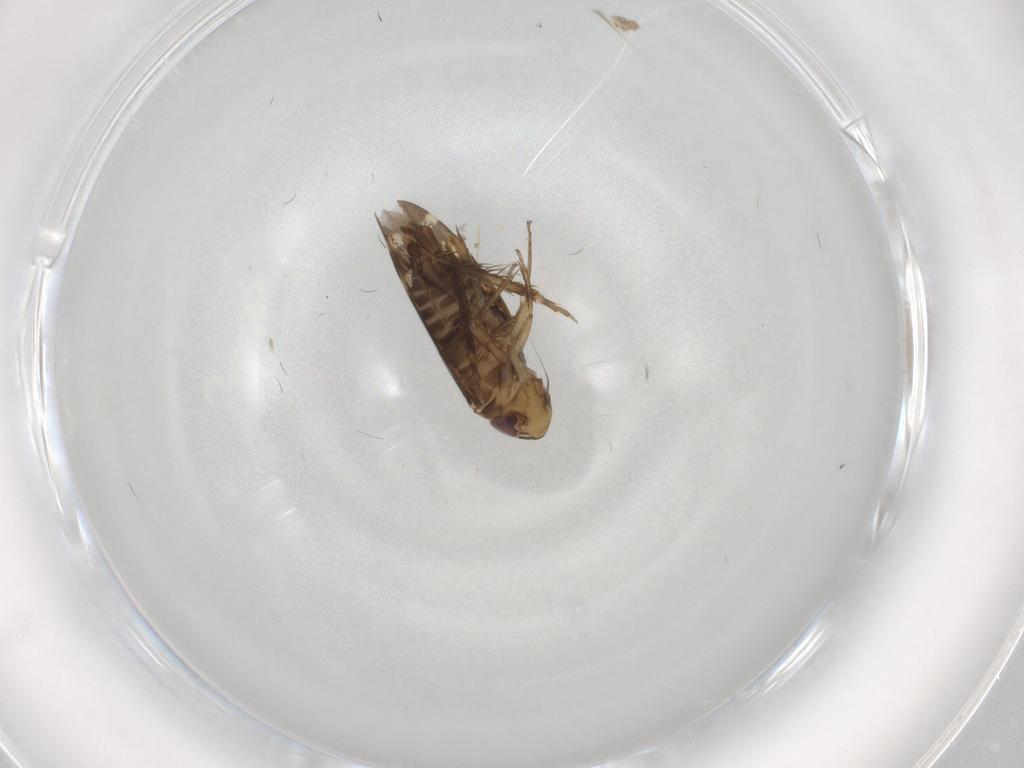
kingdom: Animalia
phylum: Arthropoda
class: Insecta
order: Hemiptera
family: Cicadellidae
